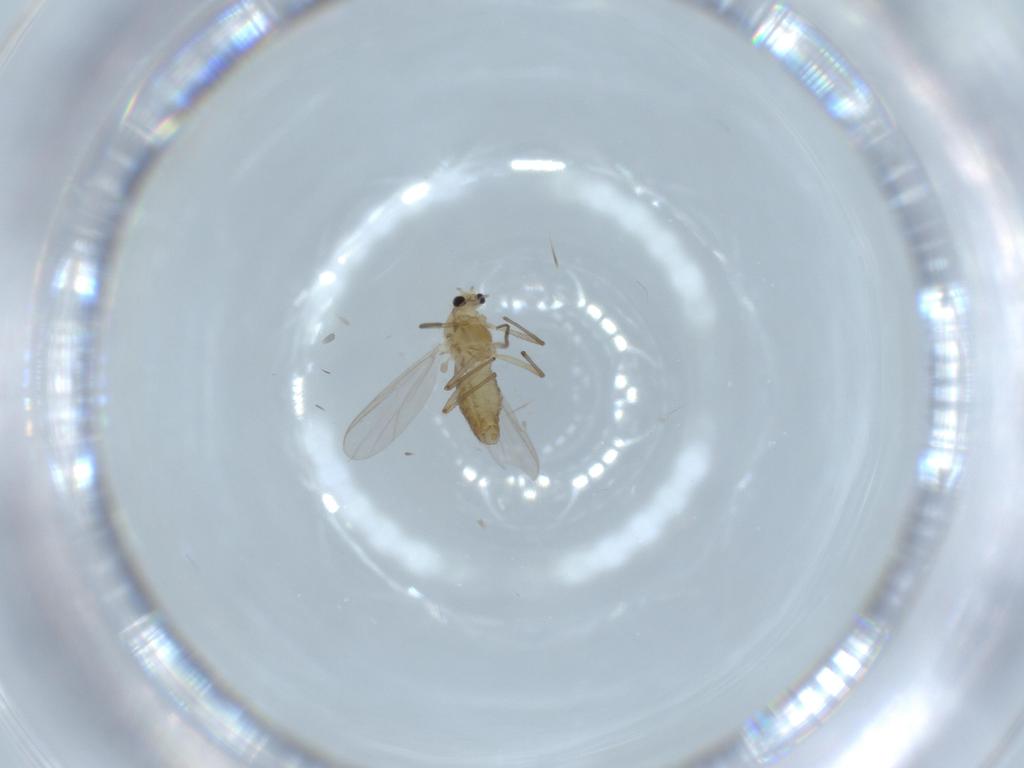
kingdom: Animalia
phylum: Arthropoda
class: Insecta
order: Diptera
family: Chironomidae
